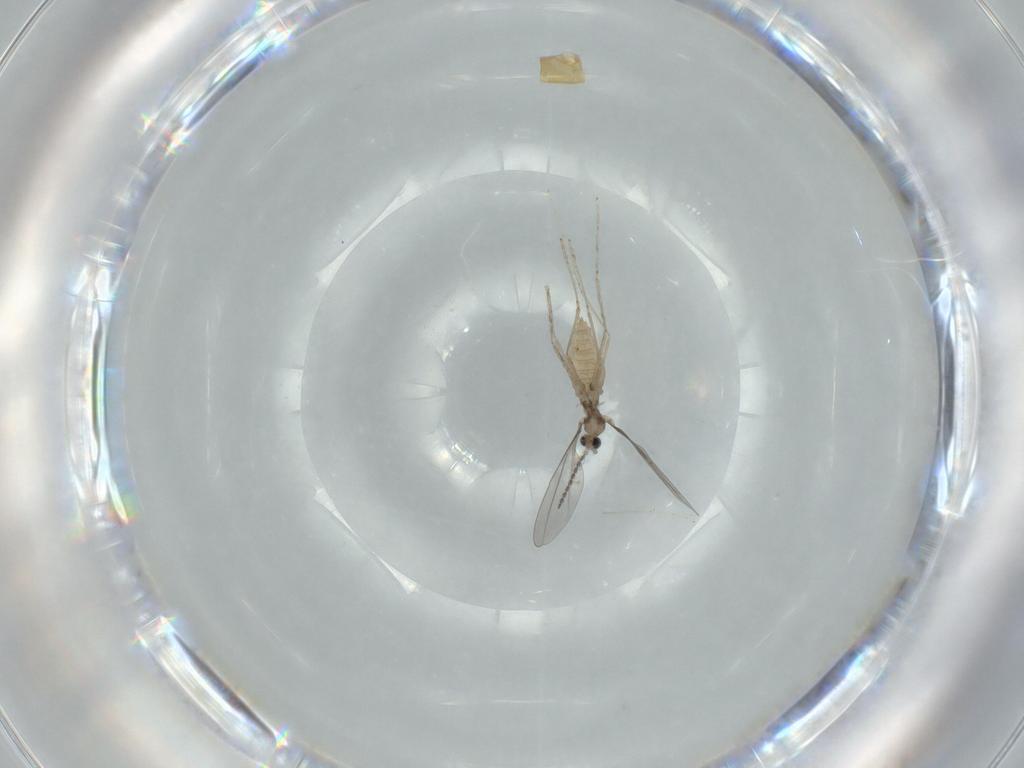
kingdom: Animalia
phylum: Arthropoda
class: Insecta
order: Diptera
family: Cecidomyiidae
